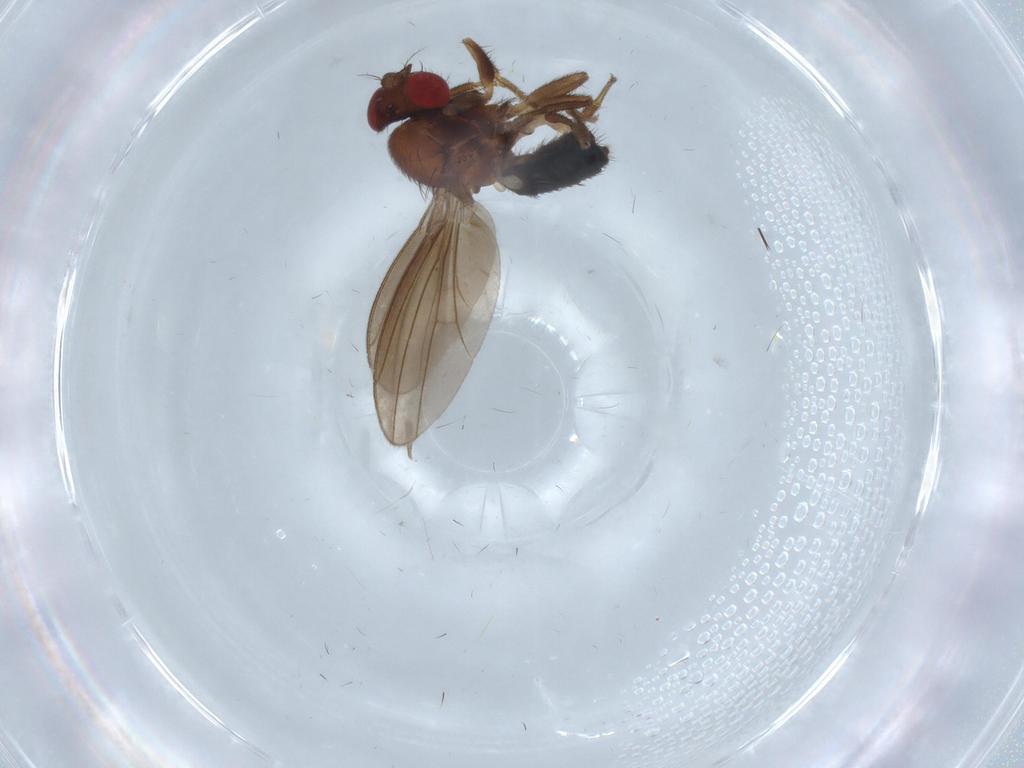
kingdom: Animalia
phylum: Arthropoda
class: Insecta
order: Diptera
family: Drosophilidae
